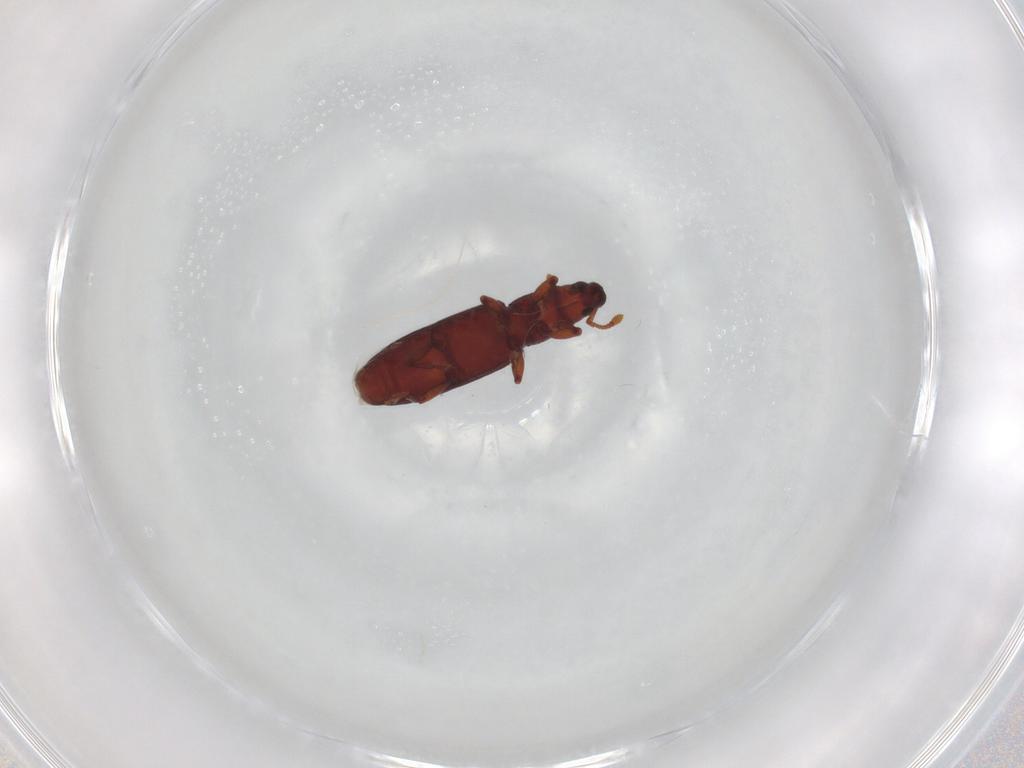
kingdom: Animalia
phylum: Arthropoda
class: Insecta
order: Coleoptera
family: Curculionidae
